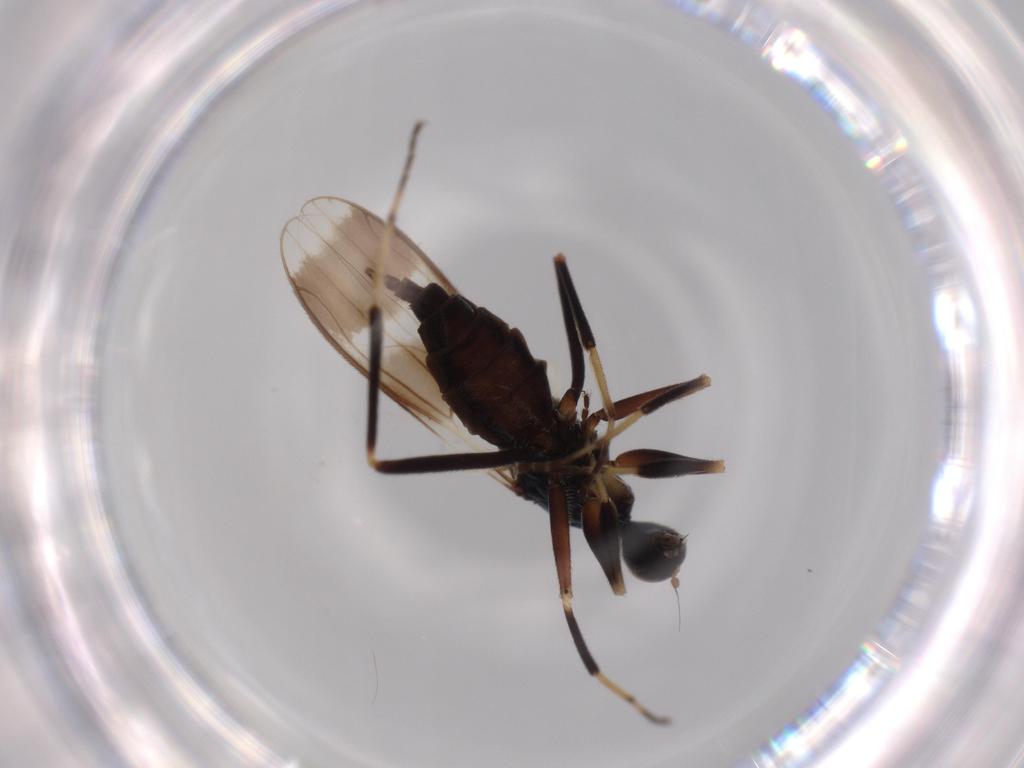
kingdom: Animalia
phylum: Arthropoda
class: Insecta
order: Diptera
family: Hybotidae
